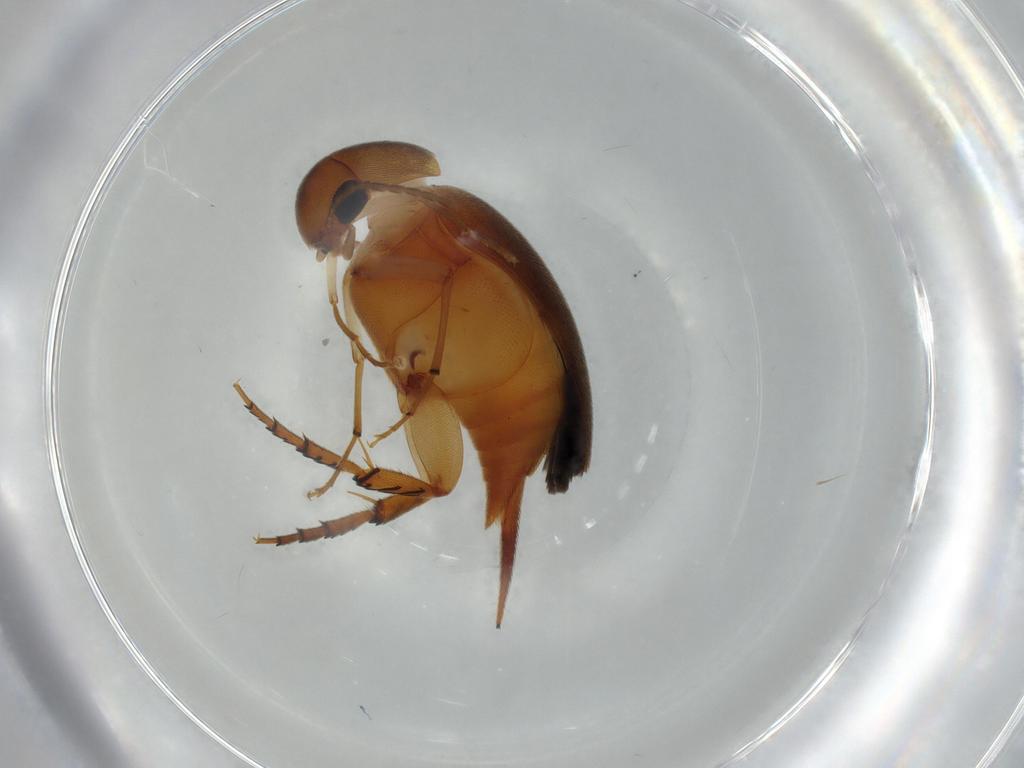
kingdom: Animalia
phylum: Arthropoda
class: Insecta
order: Coleoptera
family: Mordellidae
